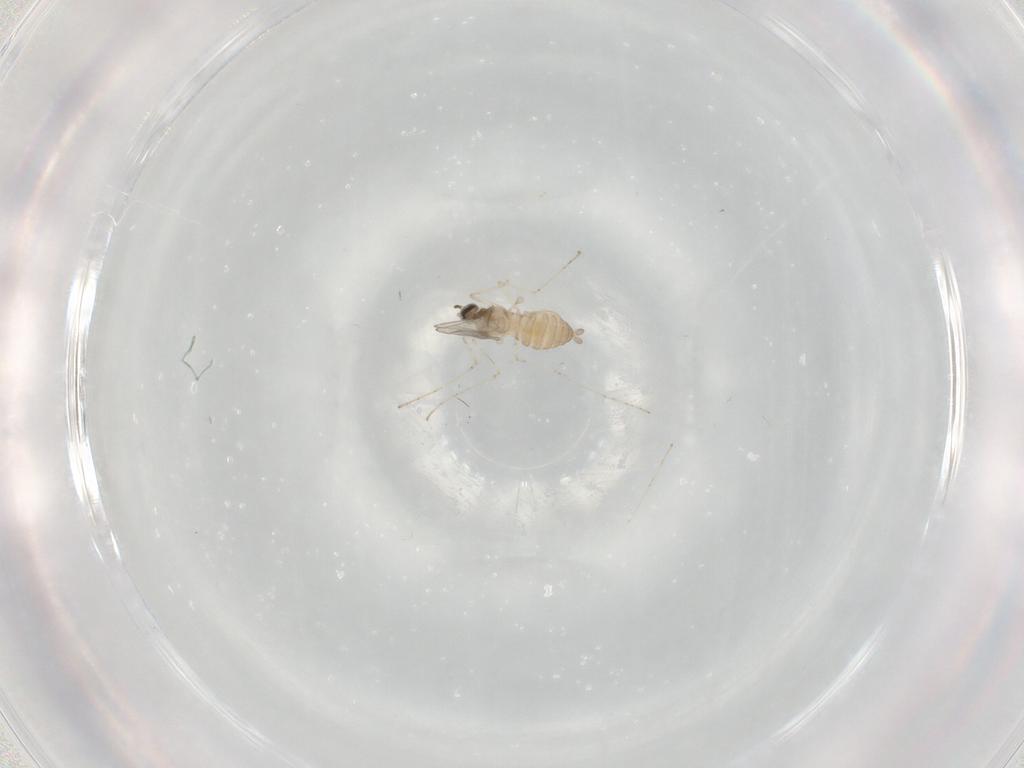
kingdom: Animalia
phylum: Arthropoda
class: Insecta
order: Diptera
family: Cecidomyiidae
